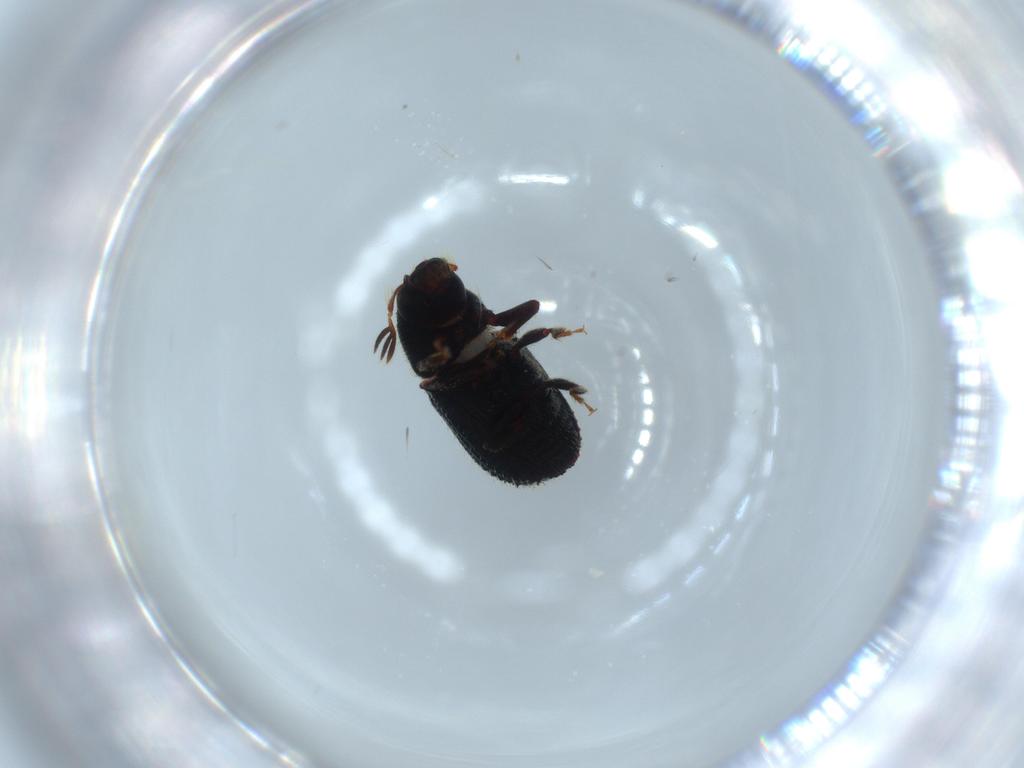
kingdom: Animalia
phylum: Arthropoda
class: Insecta
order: Coleoptera
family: Curculionidae
